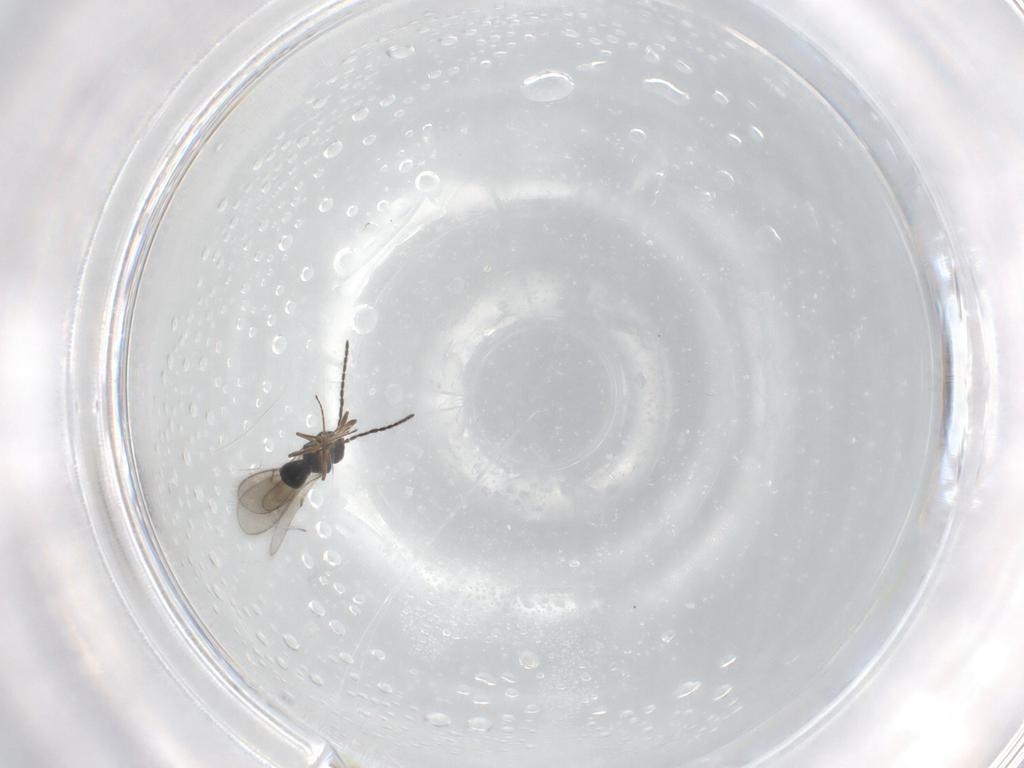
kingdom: Animalia
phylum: Arthropoda
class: Insecta
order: Hymenoptera
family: Scelionidae
